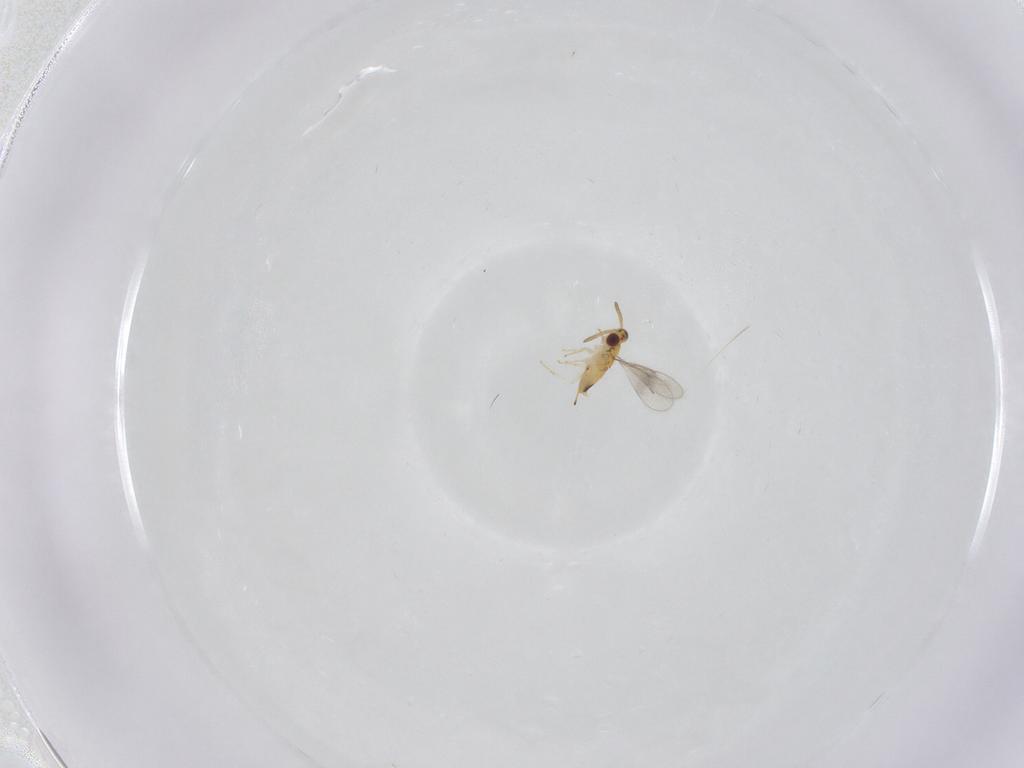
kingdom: Animalia
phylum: Arthropoda
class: Insecta
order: Hymenoptera
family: Aphelinidae
